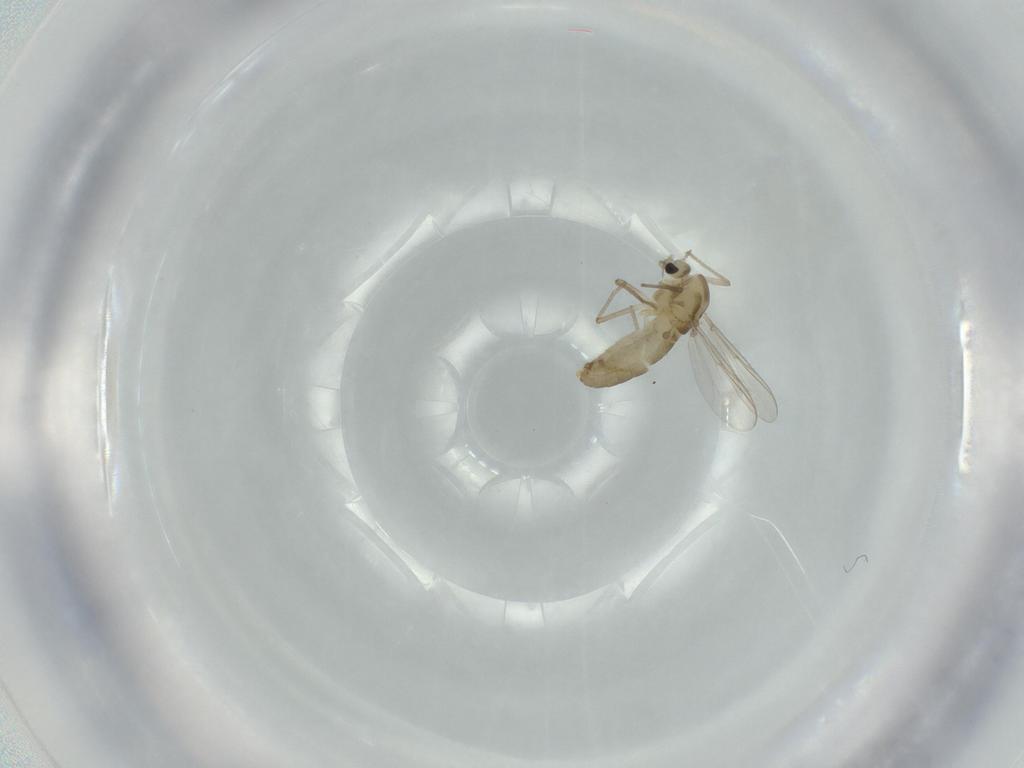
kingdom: Animalia
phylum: Arthropoda
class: Insecta
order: Diptera
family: Chironomidae
